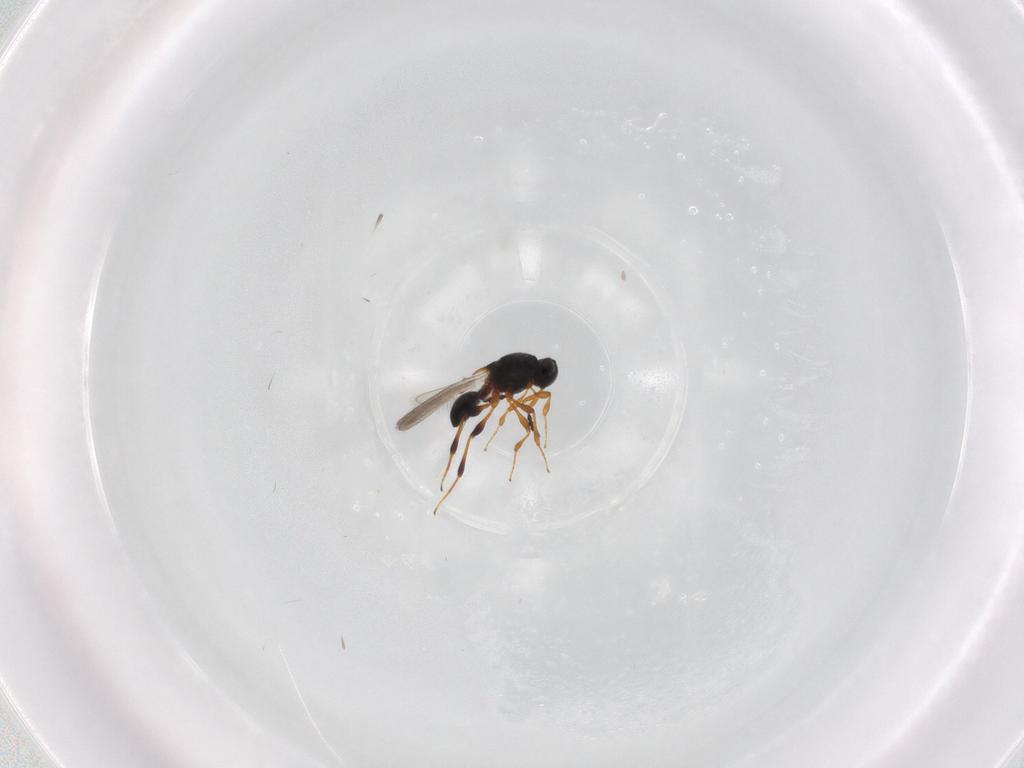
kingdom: Animalia
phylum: Arthropoda
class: Insecta
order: Hymenoptera
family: Platygastridae
